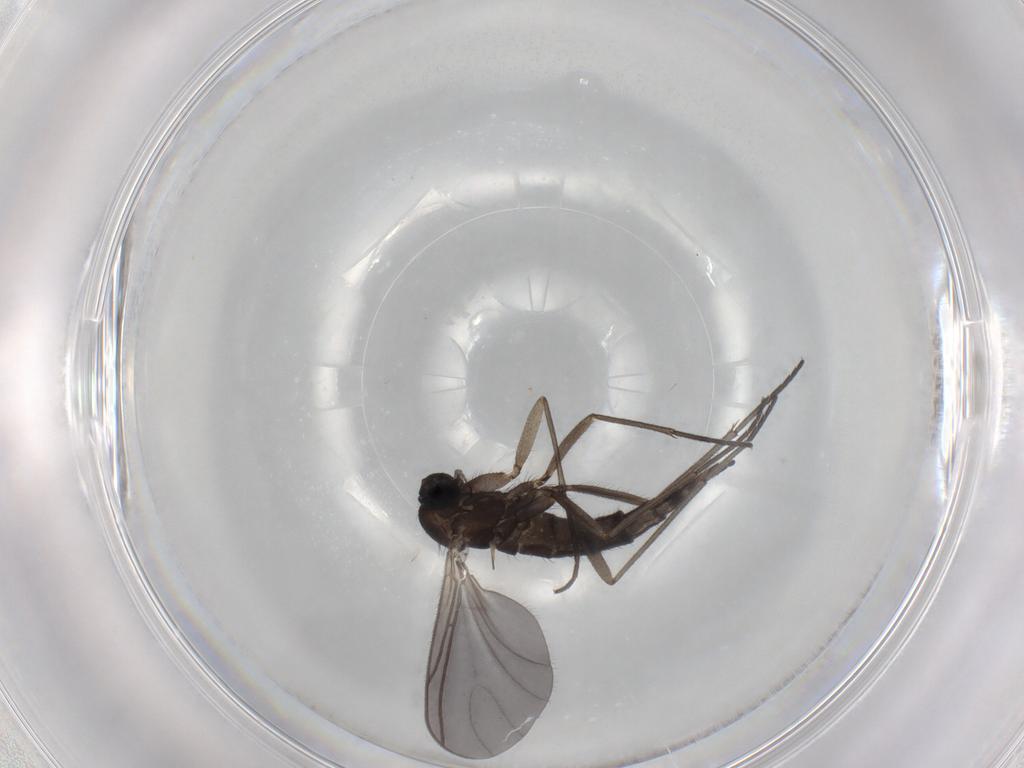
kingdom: Animalia
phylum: Arthropoda
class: Insecta
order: Diptera
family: Sciaridae
